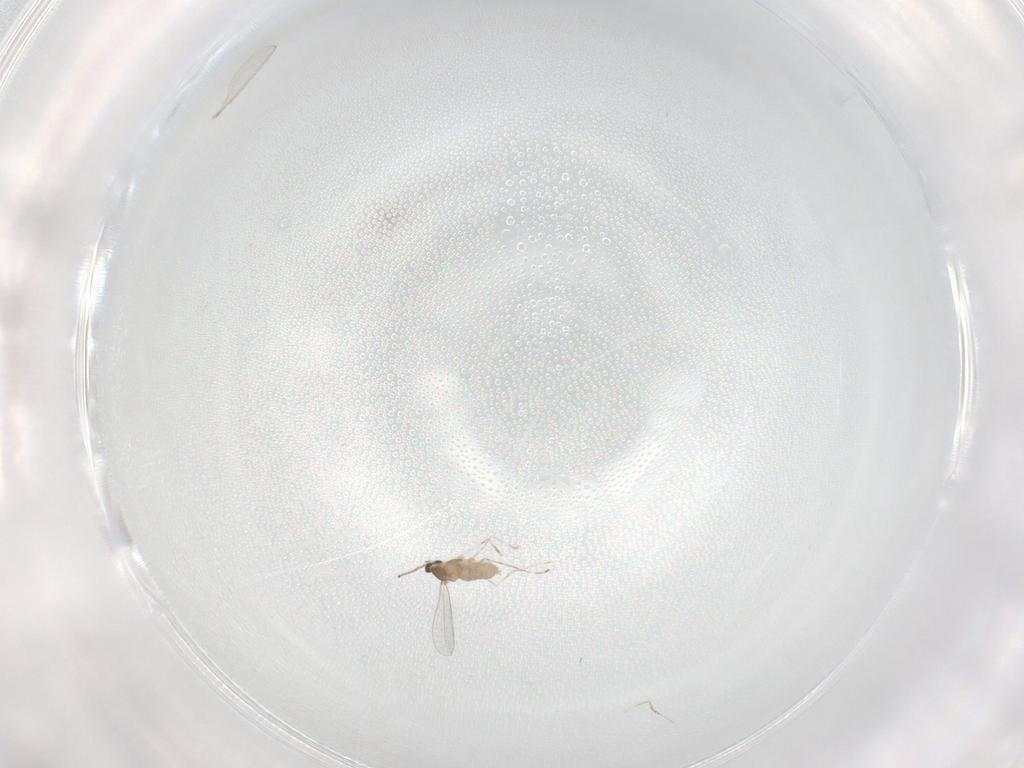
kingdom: Animalia
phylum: Arthropoda
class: Insecta
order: Diptera
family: Cecidomyiidae
